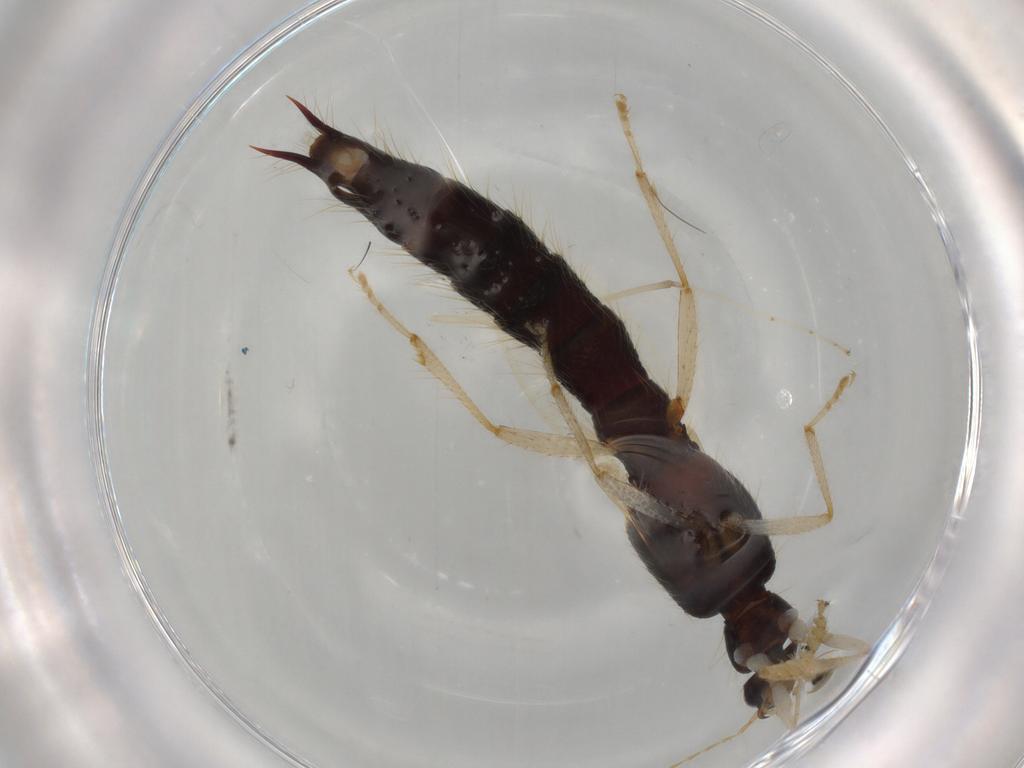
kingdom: Animalia
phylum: Arthropoda
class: Insecta
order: Coleoptera
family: Staphylinidae
